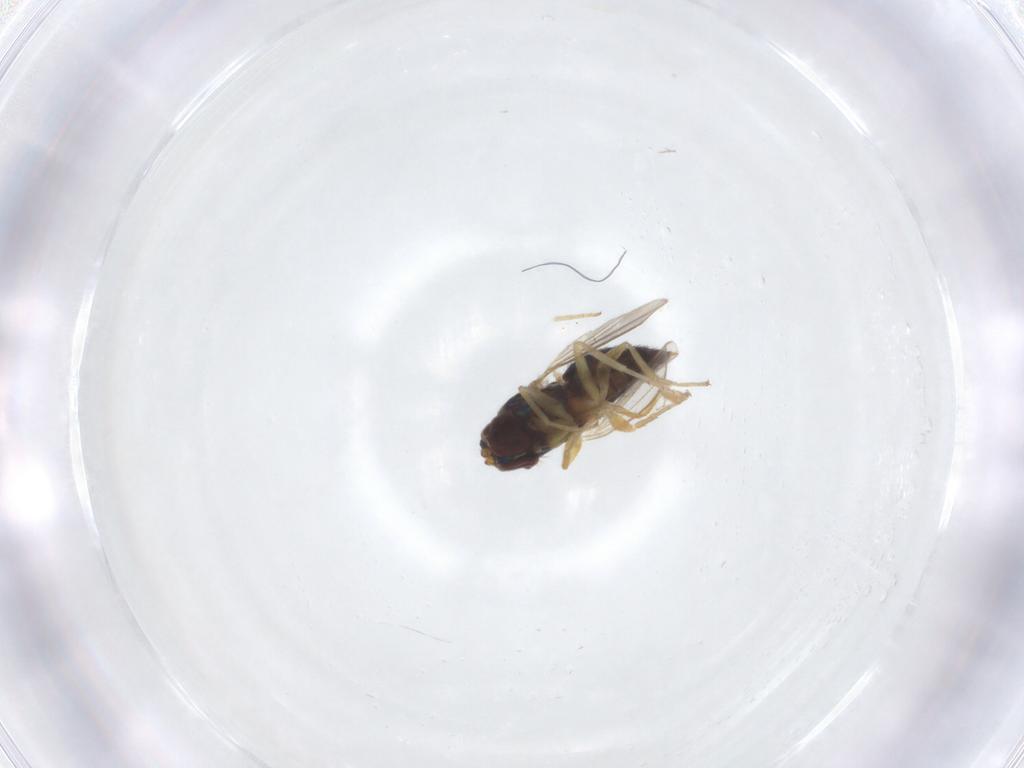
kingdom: Animalia
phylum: Arthropoda
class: Insecta
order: Diptera
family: Dolichopodidae
